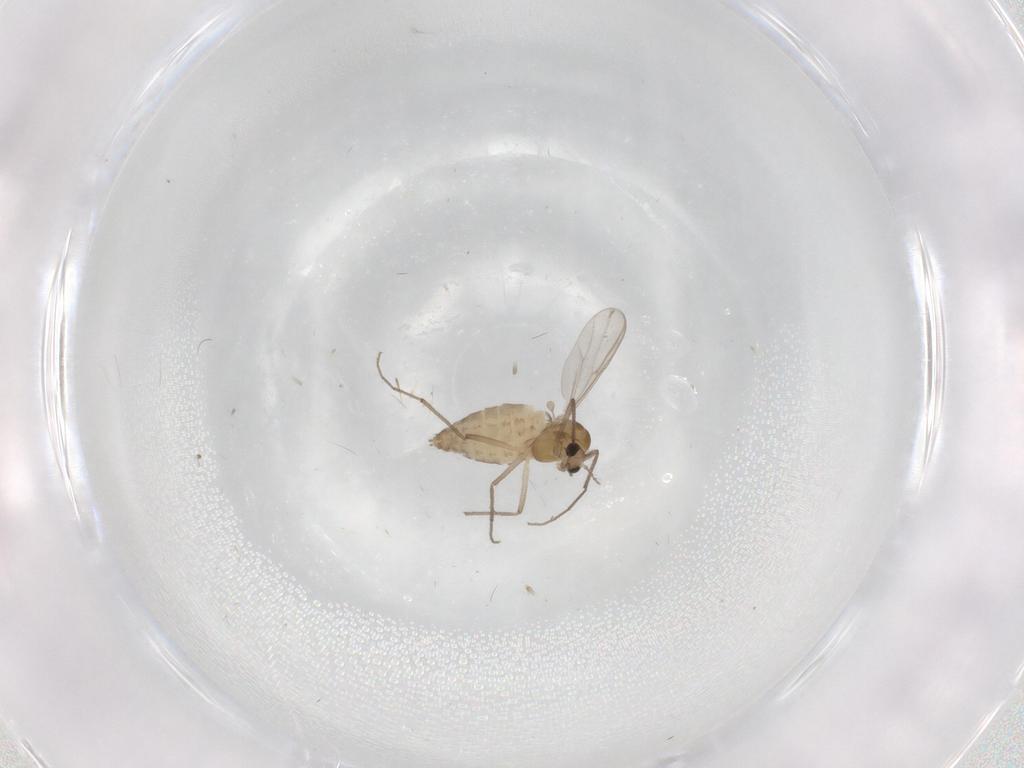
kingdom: Animalia
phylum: Arthropoda
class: Insecta
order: Diptera
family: Chironomidae
